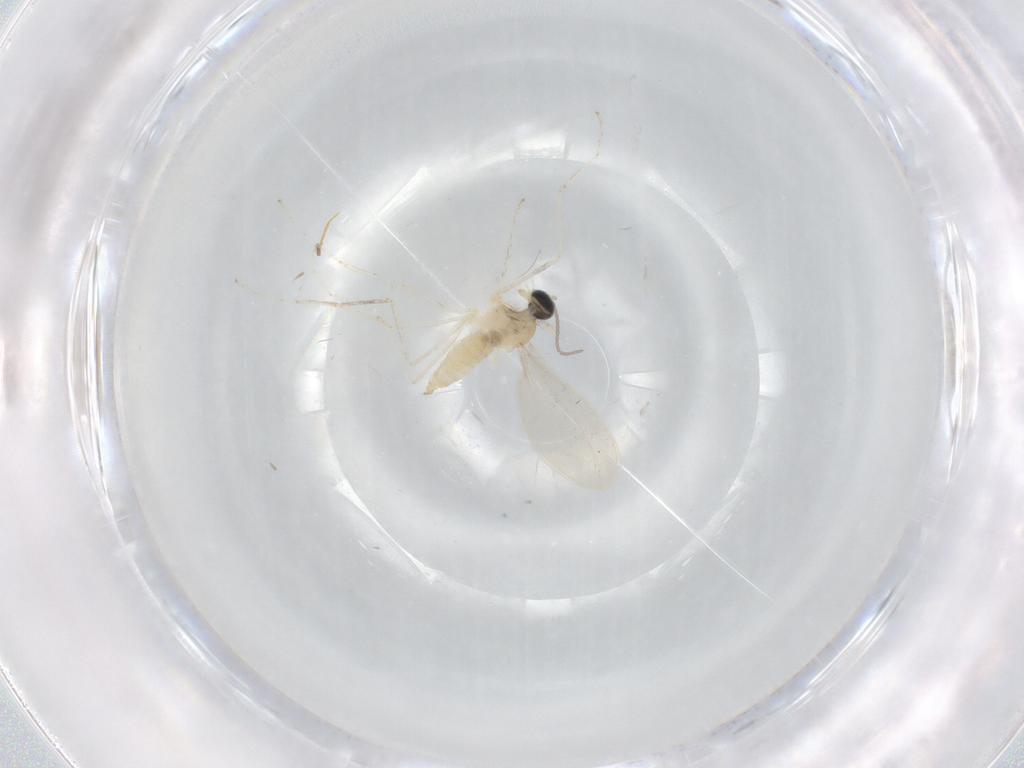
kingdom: Animalia
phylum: Arthropoda
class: Insecta
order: Diptera
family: Cecidomyiidae
